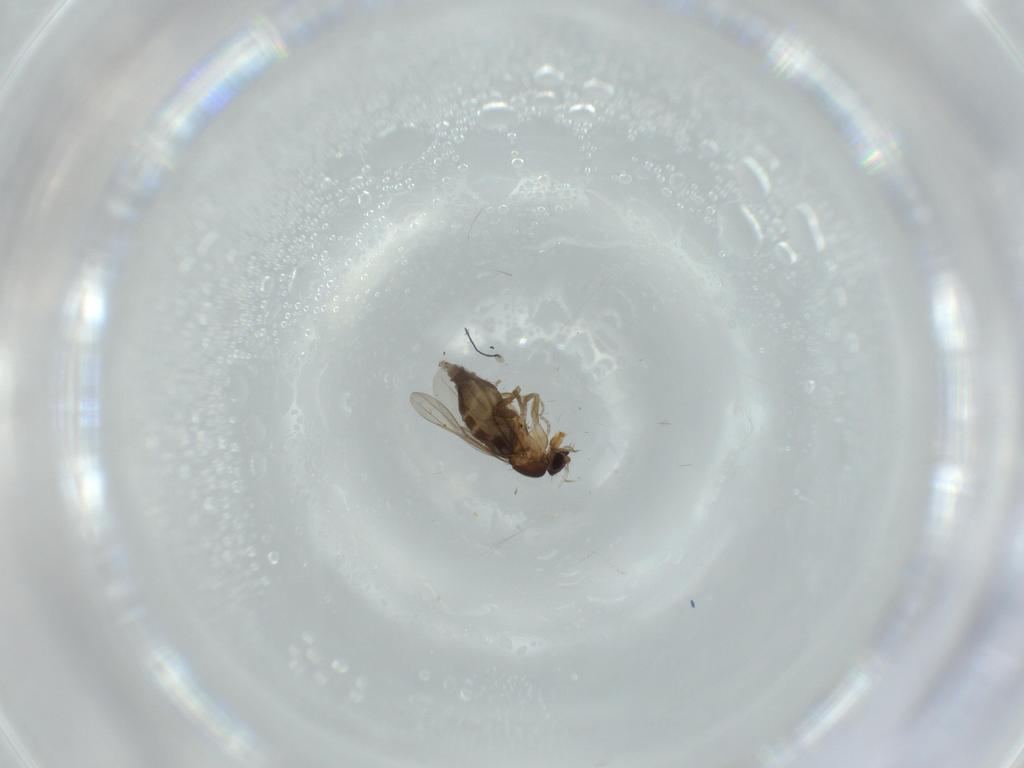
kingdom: Animalia
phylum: Arthropoda
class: Insecta
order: Diptera
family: Phoridae
